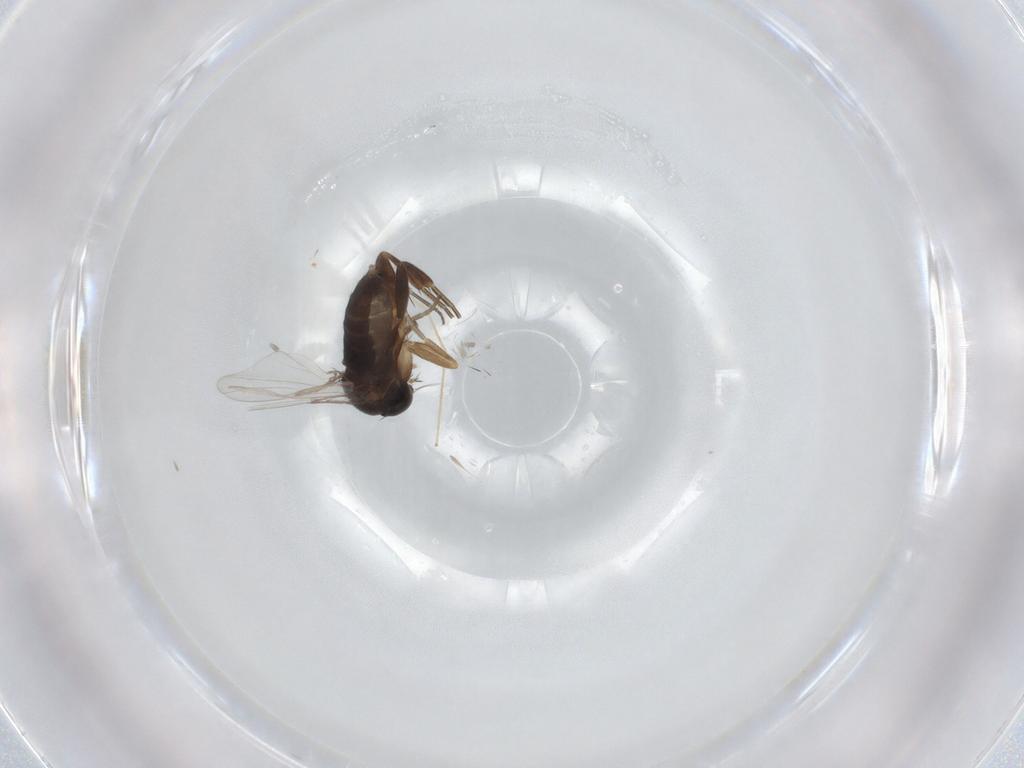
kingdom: Animalia
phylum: Arthropoda
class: Insecta
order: Diptera
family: Phoridae
